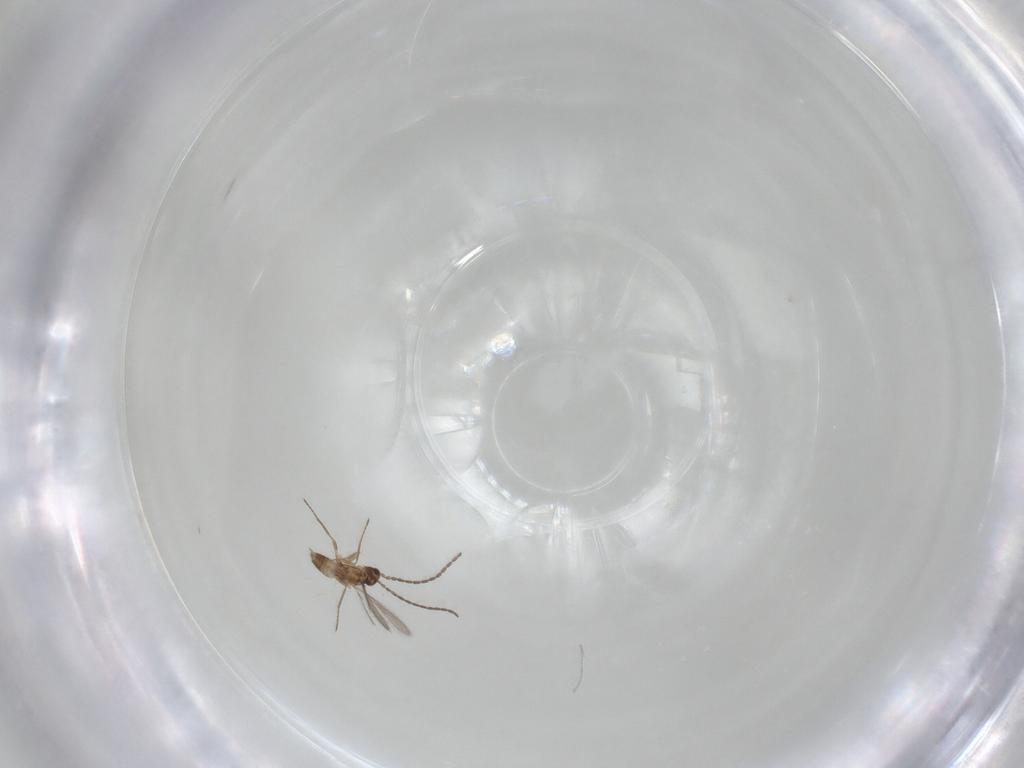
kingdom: Animalia
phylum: Arthropoda
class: Insecta
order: Hymenoptera
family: Mymaridae
